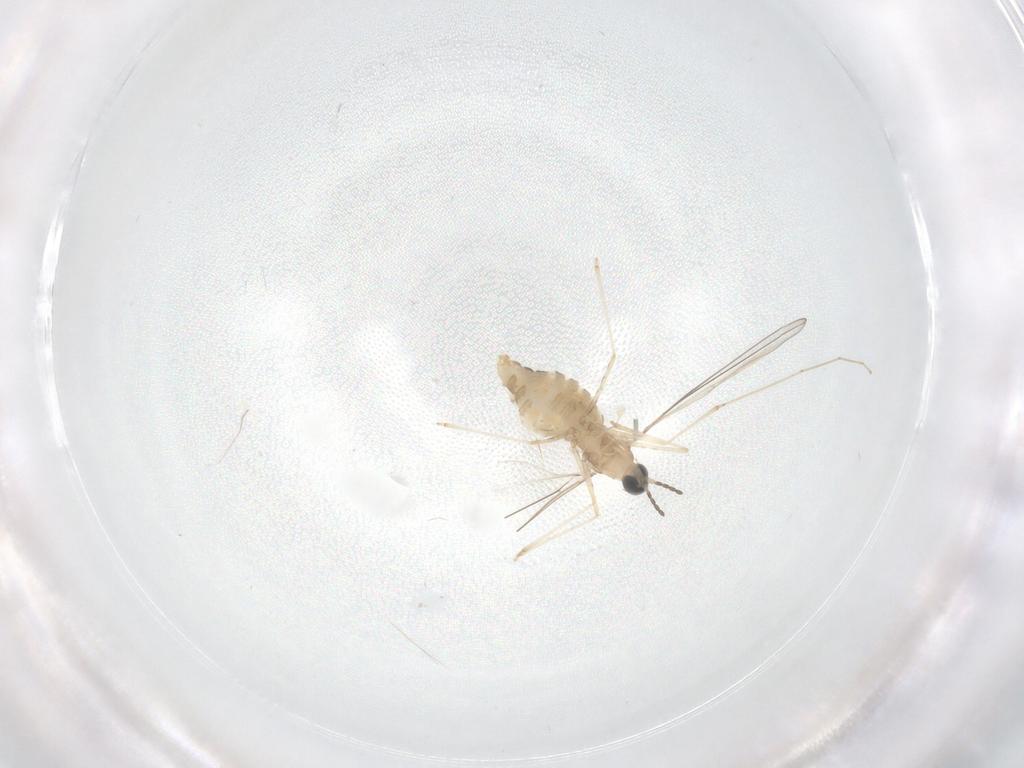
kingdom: Animalia
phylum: Arthropoda
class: Insecta
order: Diptera
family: Cecidomyiidae
